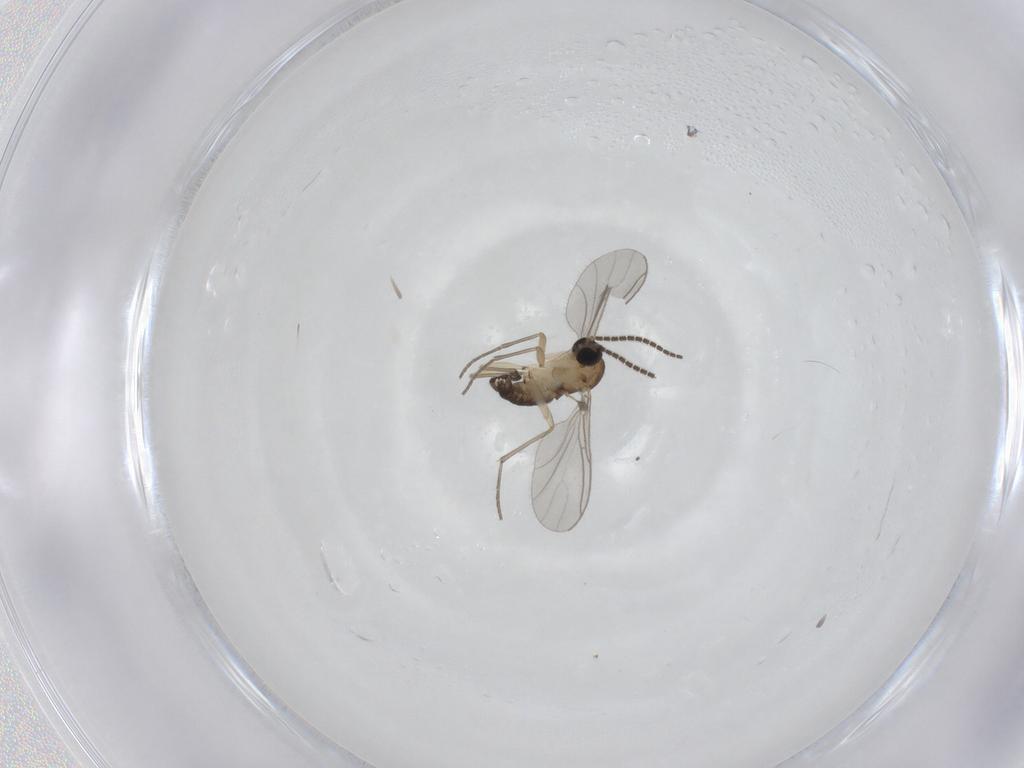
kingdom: Animalia
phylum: Arthropoda
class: Insecta
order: Diptera
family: Sciaridae
